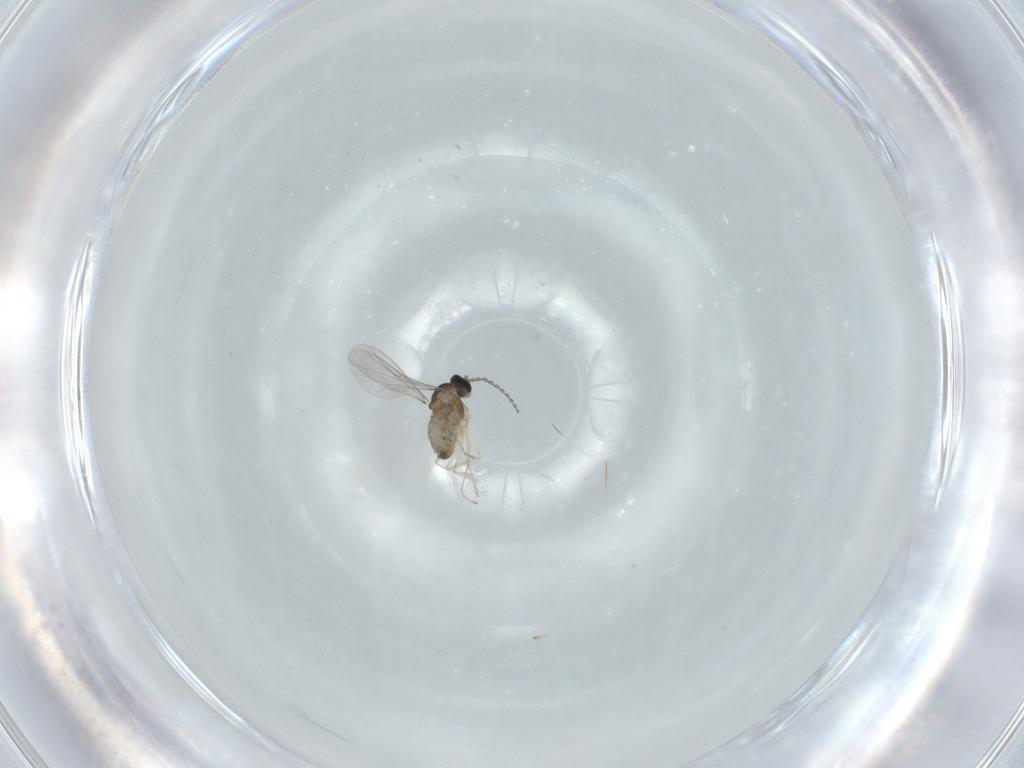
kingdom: Animalia
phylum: Arthropoda
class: Insecta
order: Diptera
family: Cecidomyiidae
